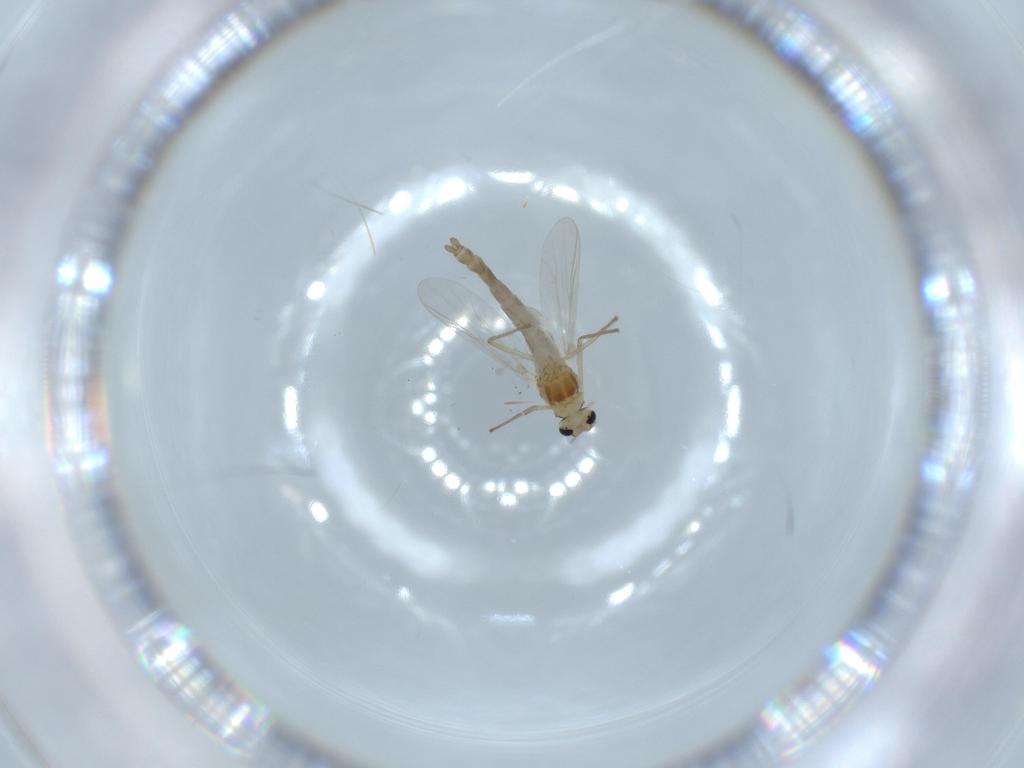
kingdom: Animalia
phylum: Arthropoda
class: Insecta
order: Diptera
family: Chironomidae
